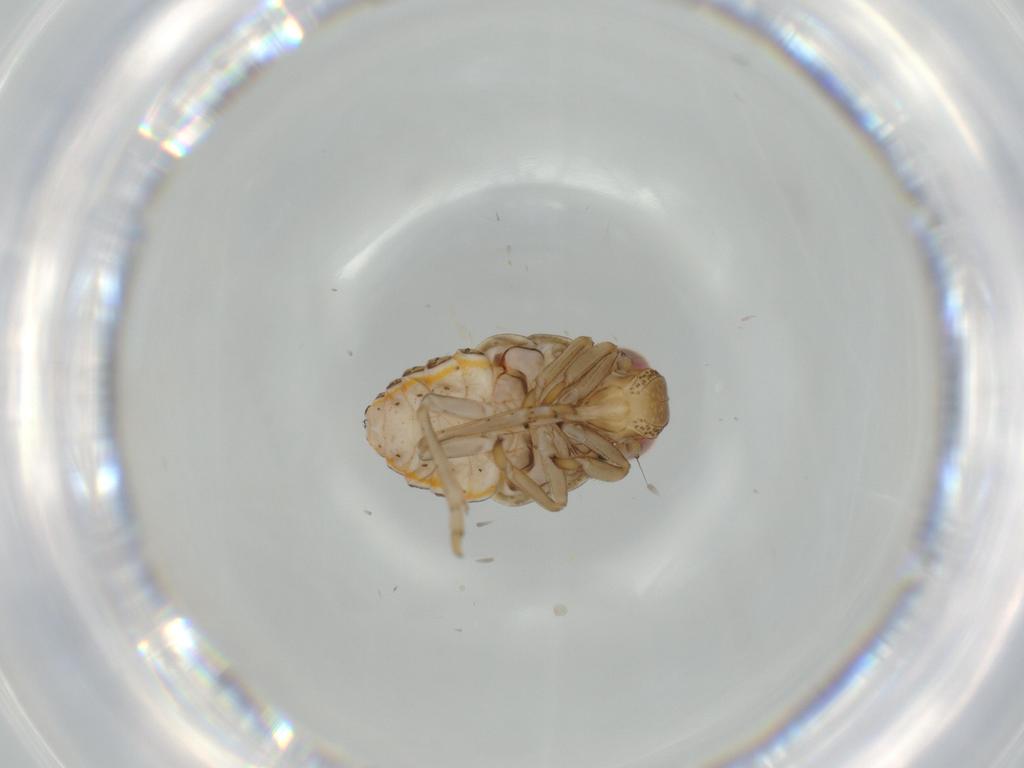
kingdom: Animalia
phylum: Arthropoda
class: Insecta
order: Hemiptera
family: Issidae
